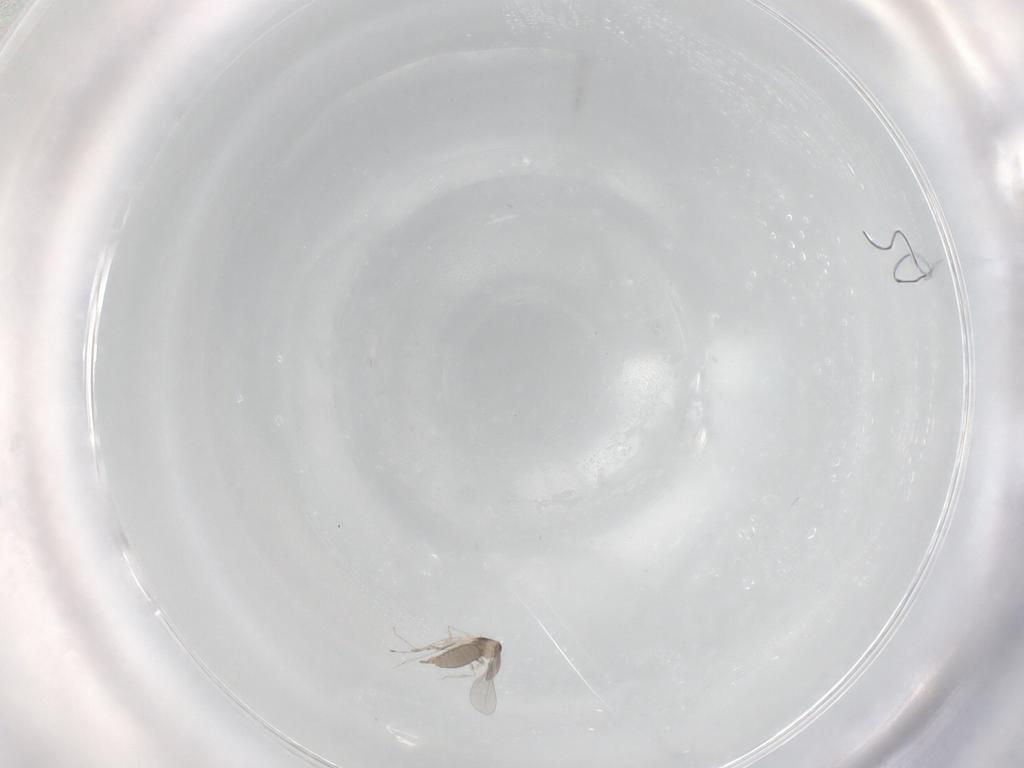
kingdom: Animalia
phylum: Arthropoda
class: Insecta
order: Diptera
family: Cecidomyiidae
